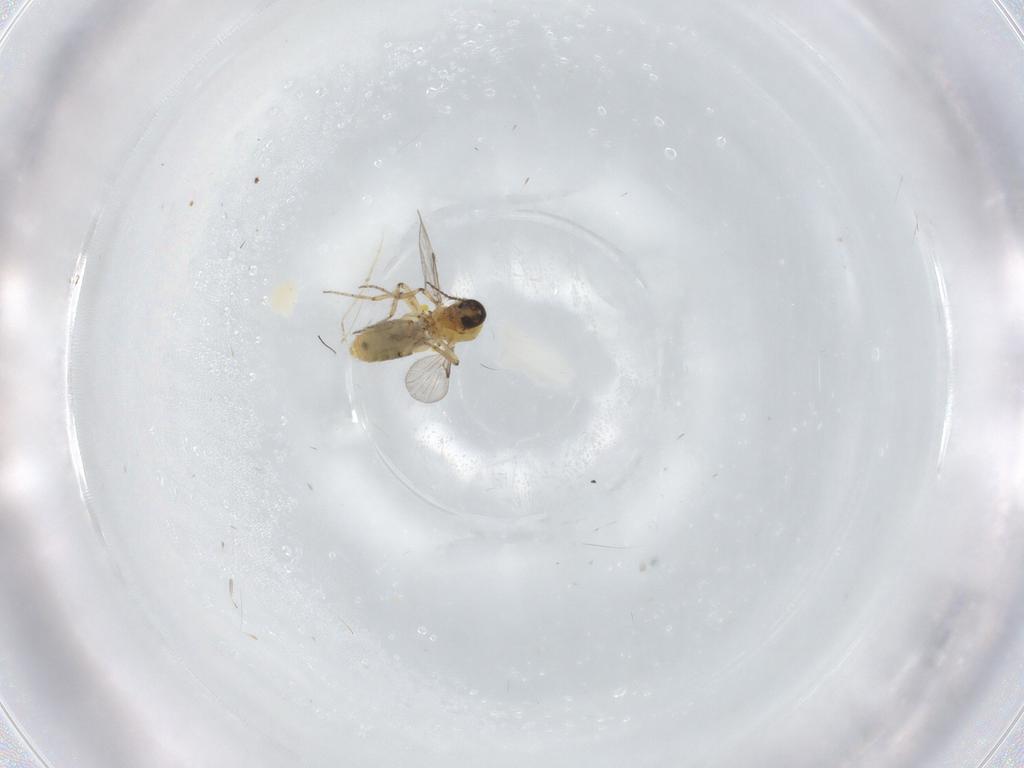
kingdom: Animalia
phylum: Arthropoda
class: Insecta
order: Diptera
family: Ceratopogonidae
